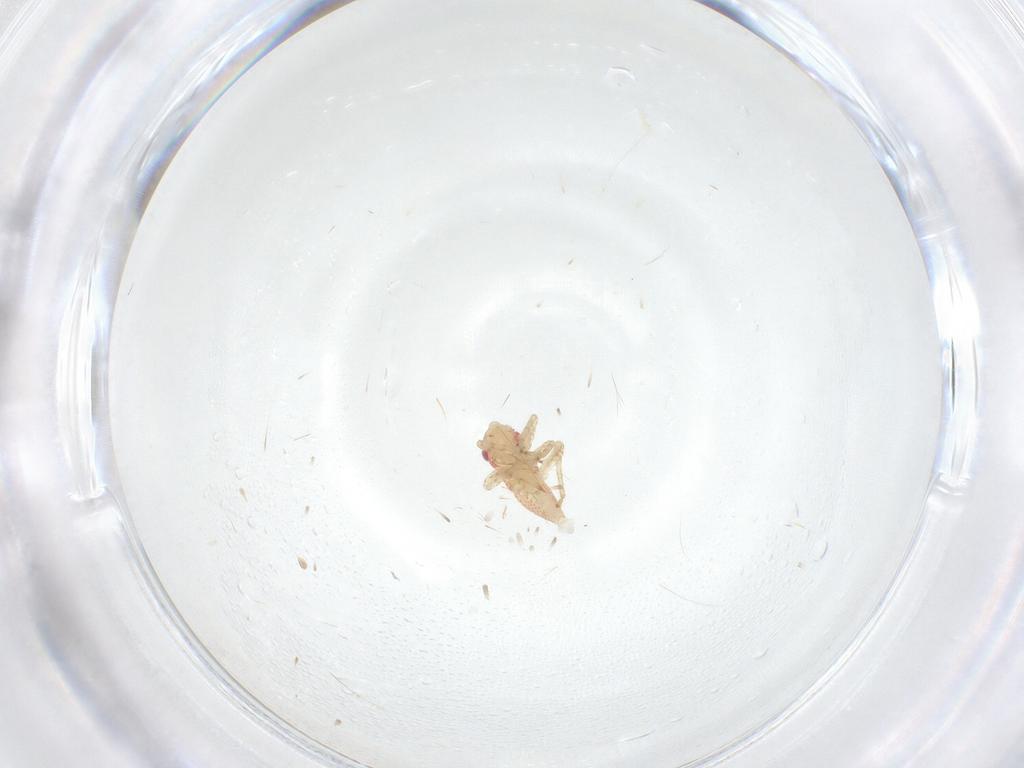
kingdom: Animalia
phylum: Arthropoda
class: Insecta
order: Hemiptera
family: Miridae
